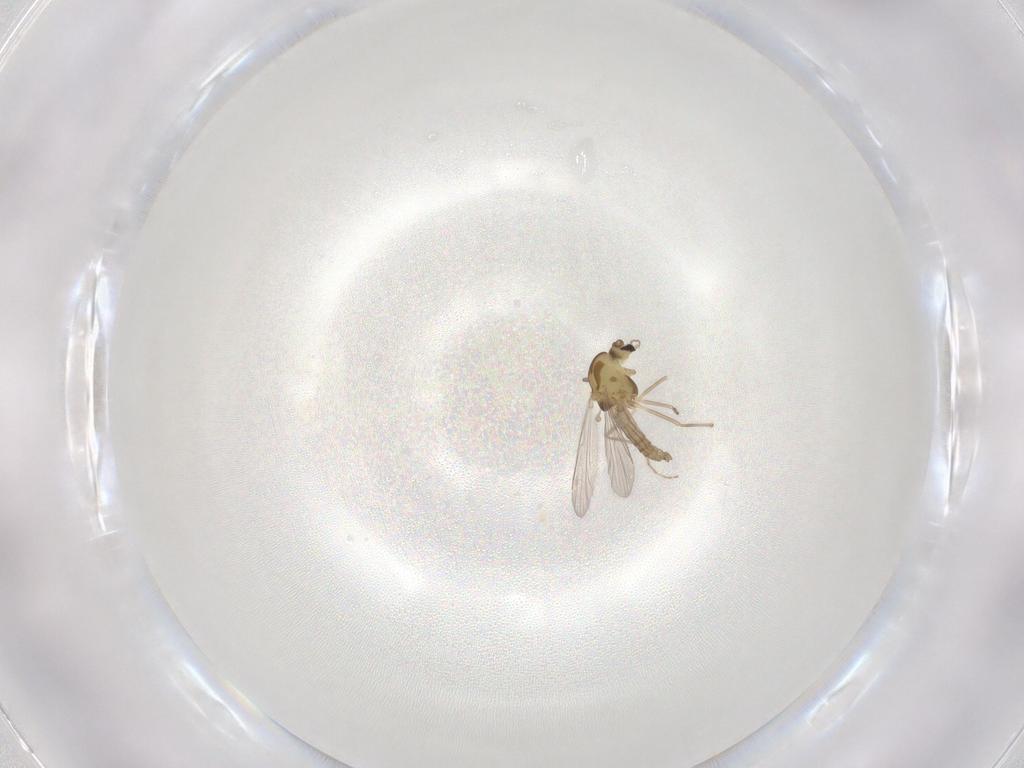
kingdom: Animalia
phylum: Arthropoda
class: Insecta
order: Diptera
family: Chironomidae
